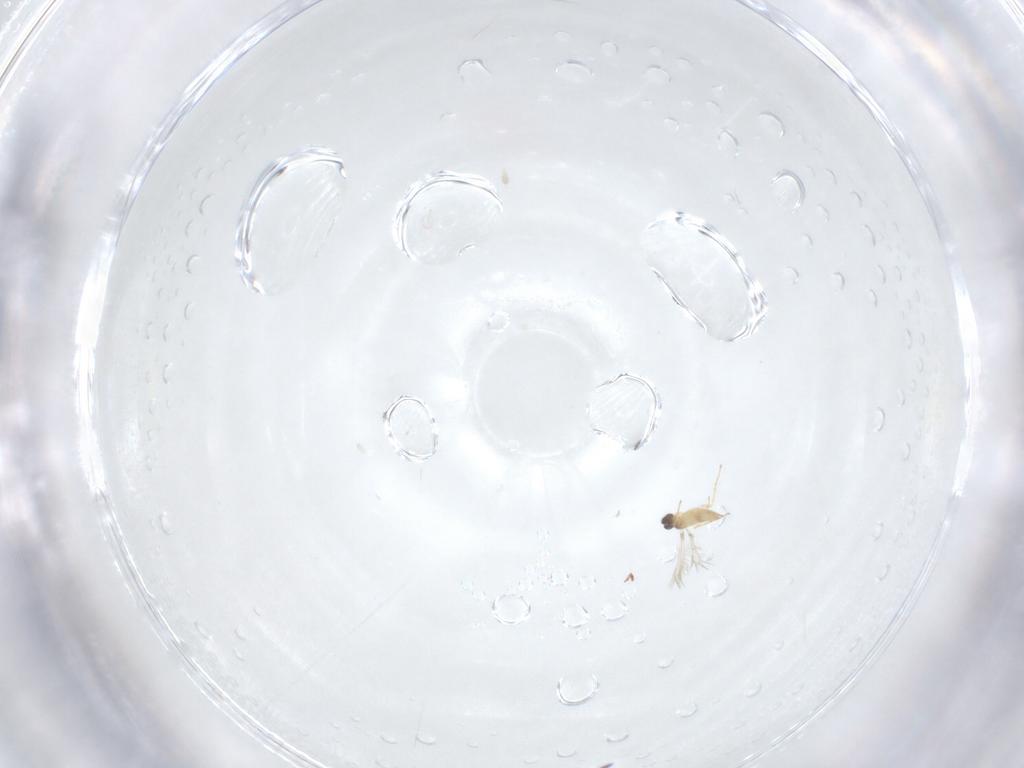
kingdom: Animalia
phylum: Arthropoda
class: Insecta
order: Hymenoptera
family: Mymaridae
